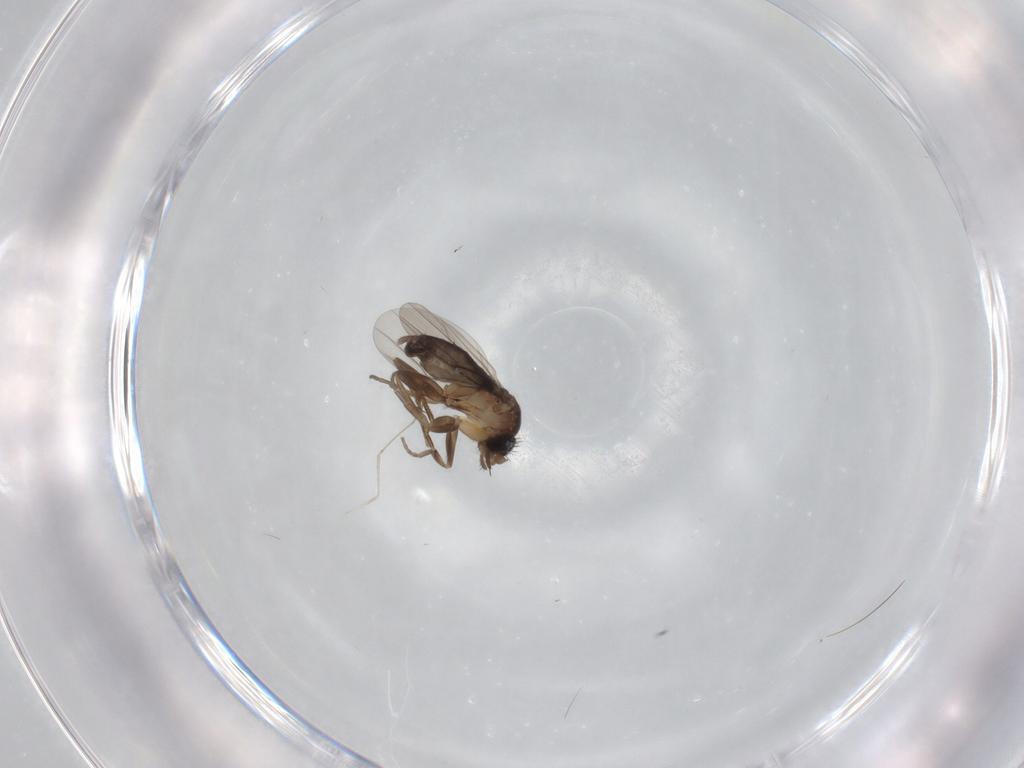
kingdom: Animalia
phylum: Arthropoda
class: Insecta
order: Diptera
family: Phoridae
